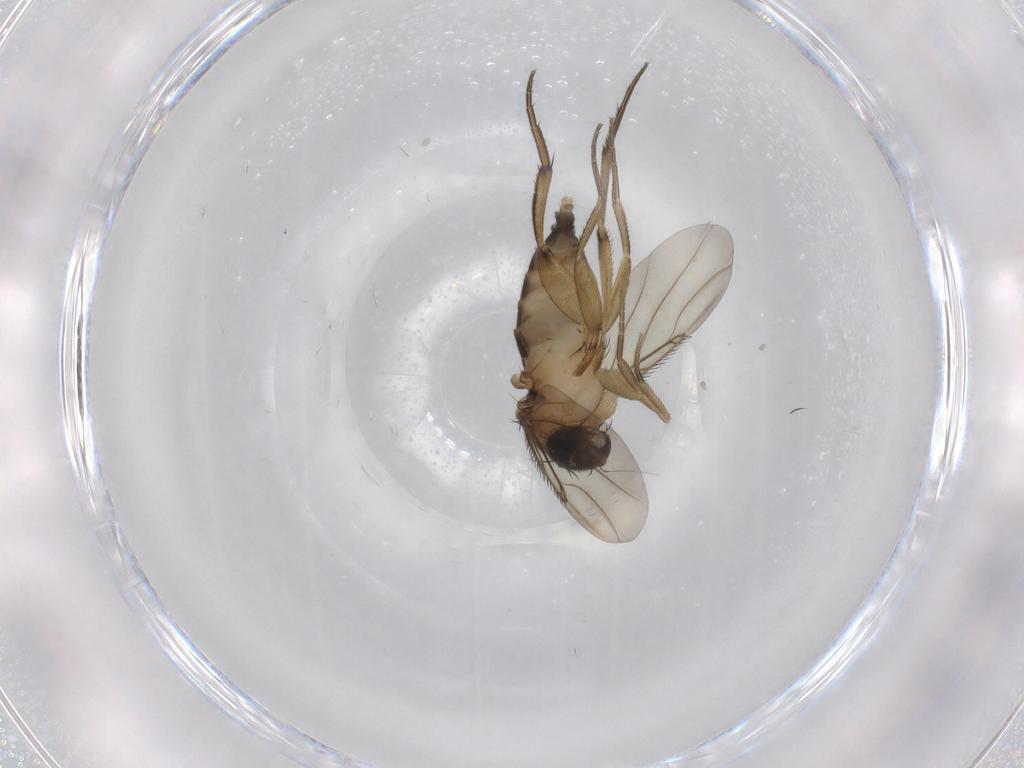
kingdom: Animalia
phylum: Arthropoda
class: Insecta
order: Diptera
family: Phoridae
